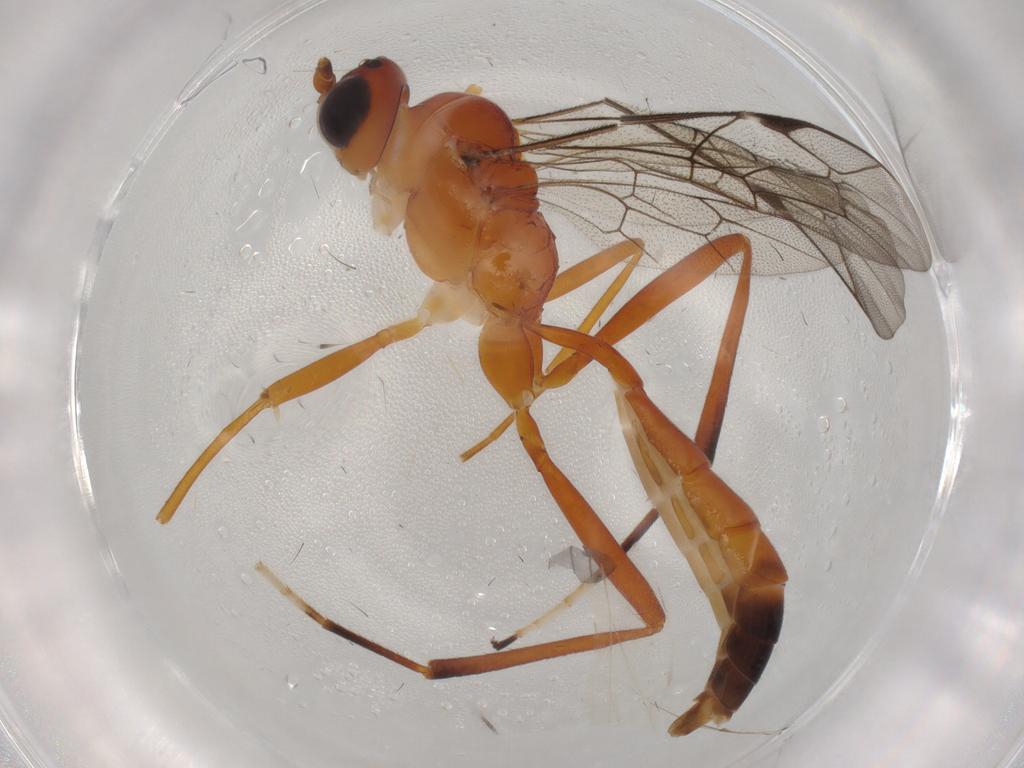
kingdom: Animalia
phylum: Arthropoda
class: Insecta
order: Hymenoptera
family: Ichneumonidae
